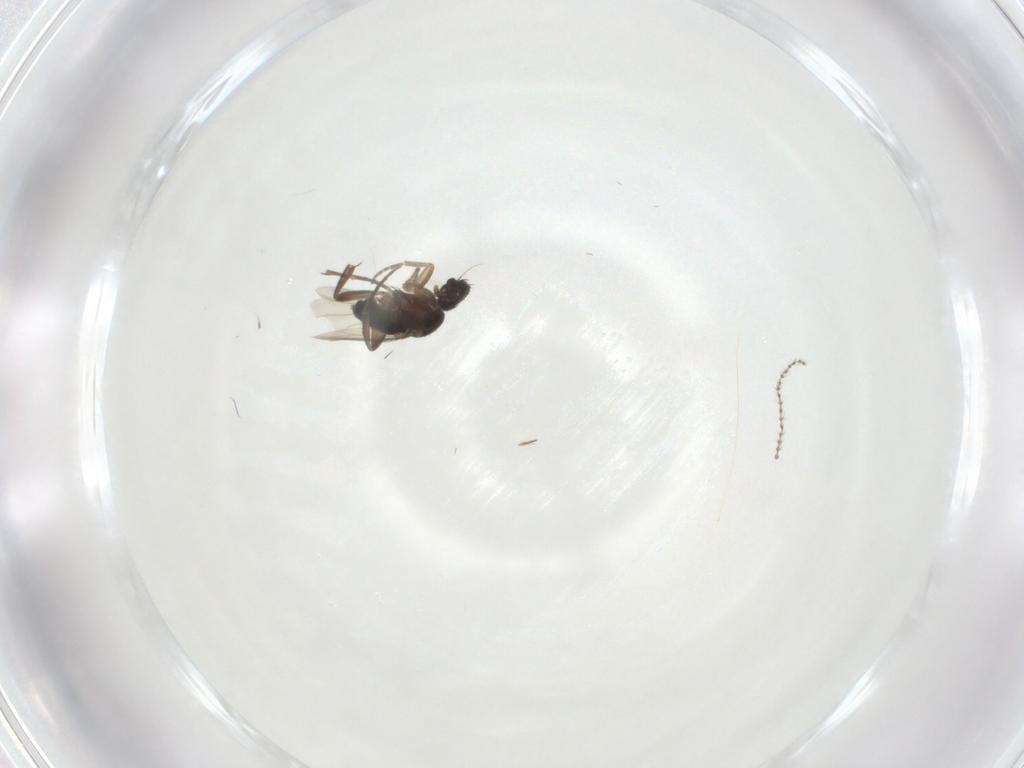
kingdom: Animalia
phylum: Arthropoda
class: Insecta
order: Diptera
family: Phoridae
